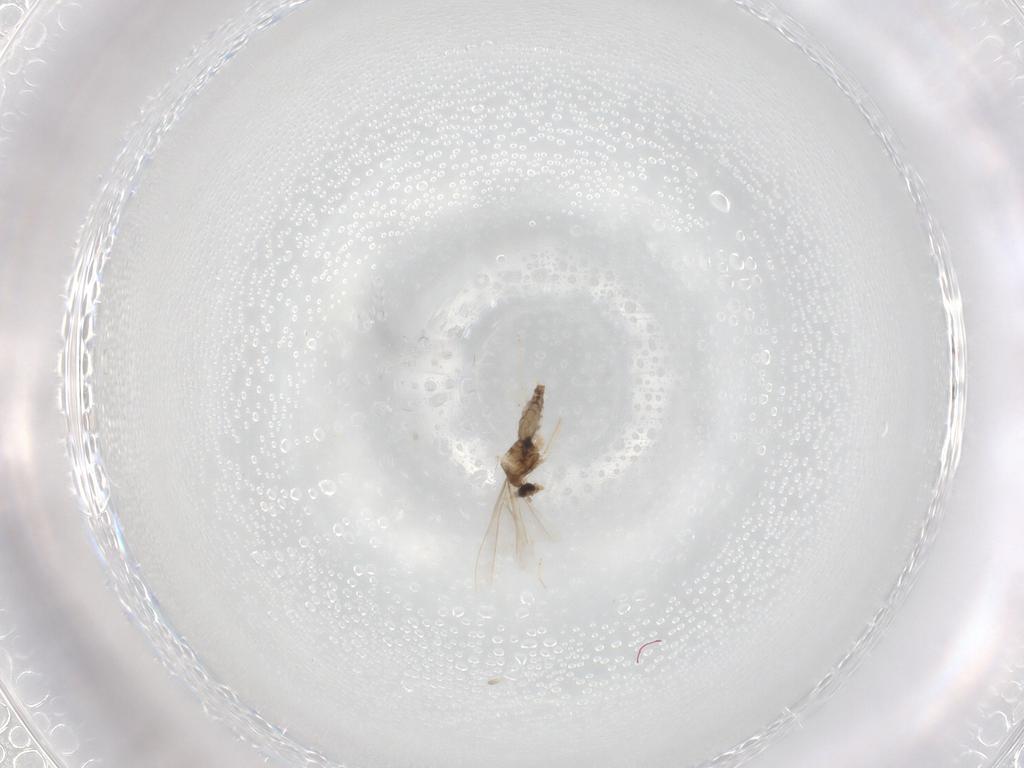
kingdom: Animalia
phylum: Arthropoda
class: Insecta
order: Diptera
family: Cecidomyiidae
